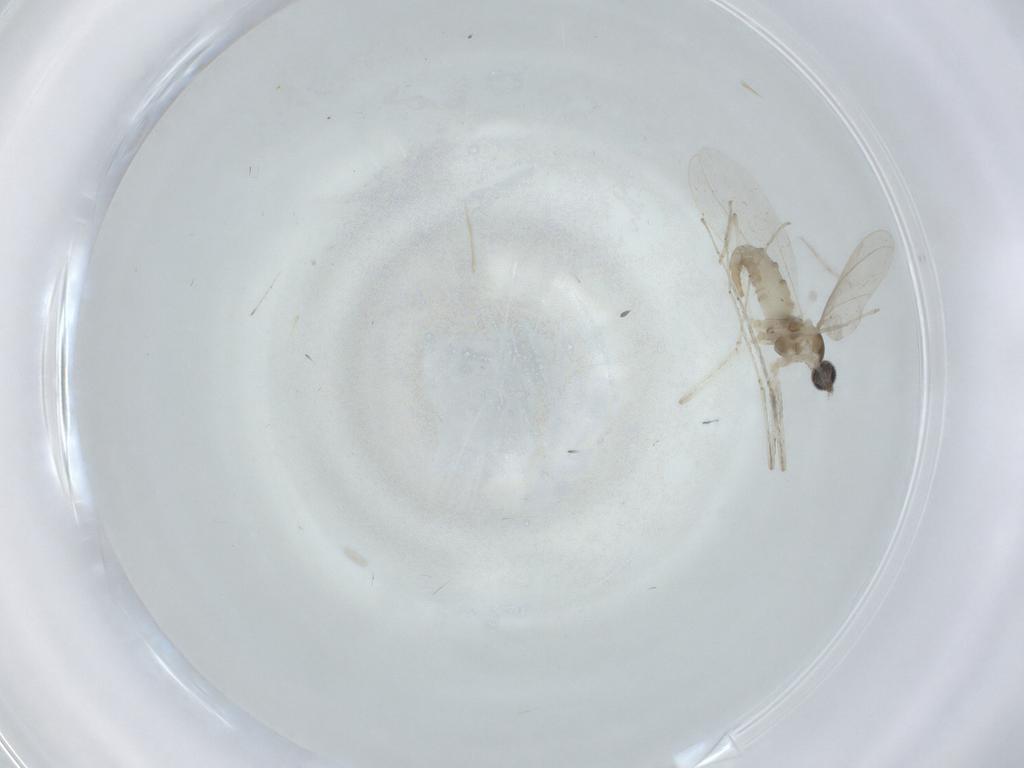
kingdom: Animalia
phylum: Arthropoda
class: Insecta
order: Diptera
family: Cecidomyiidae
